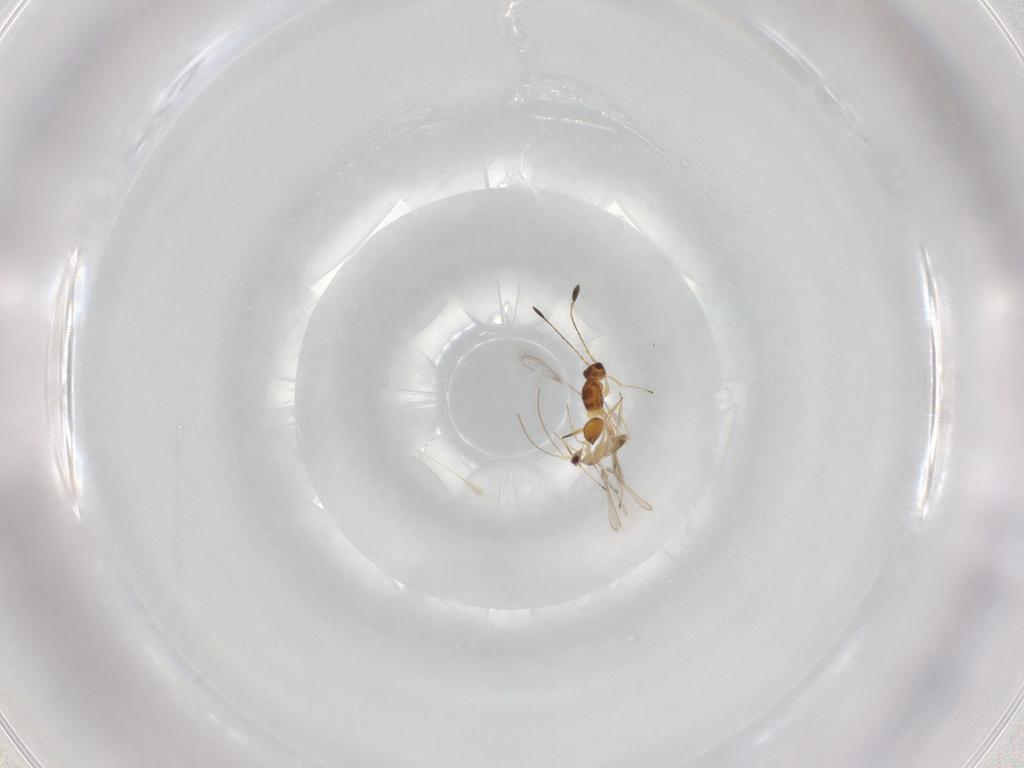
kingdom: Animalia
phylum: Arthropoda
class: Insecta
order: Hymenoptera
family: Mymaridae
